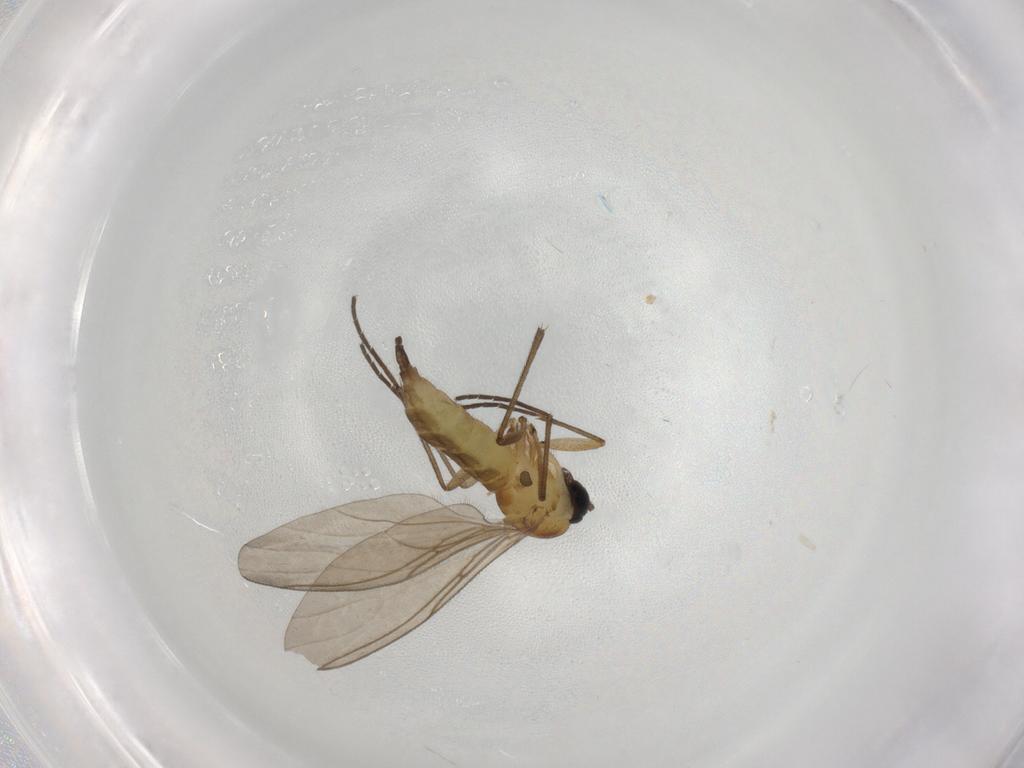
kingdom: Animalia
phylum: Arthropoda
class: Insecta
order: Diptera
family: Sciaridae
